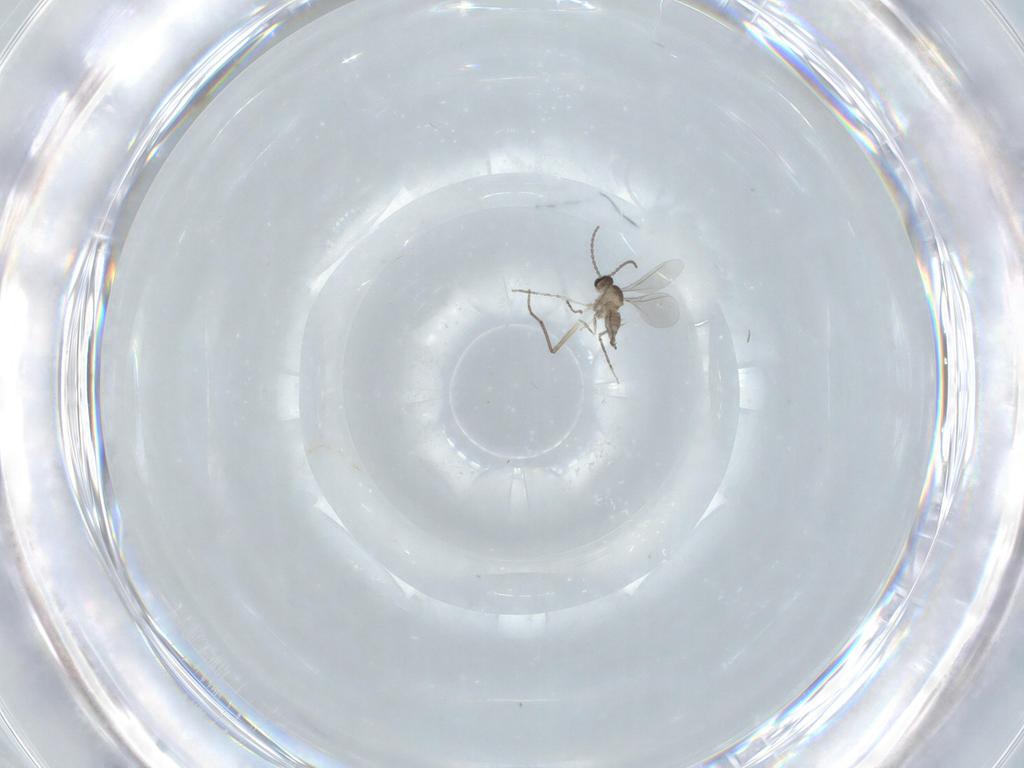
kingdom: Animalia
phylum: Arthropoda
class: Insecta
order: Diptera
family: Cecidomyiidae
